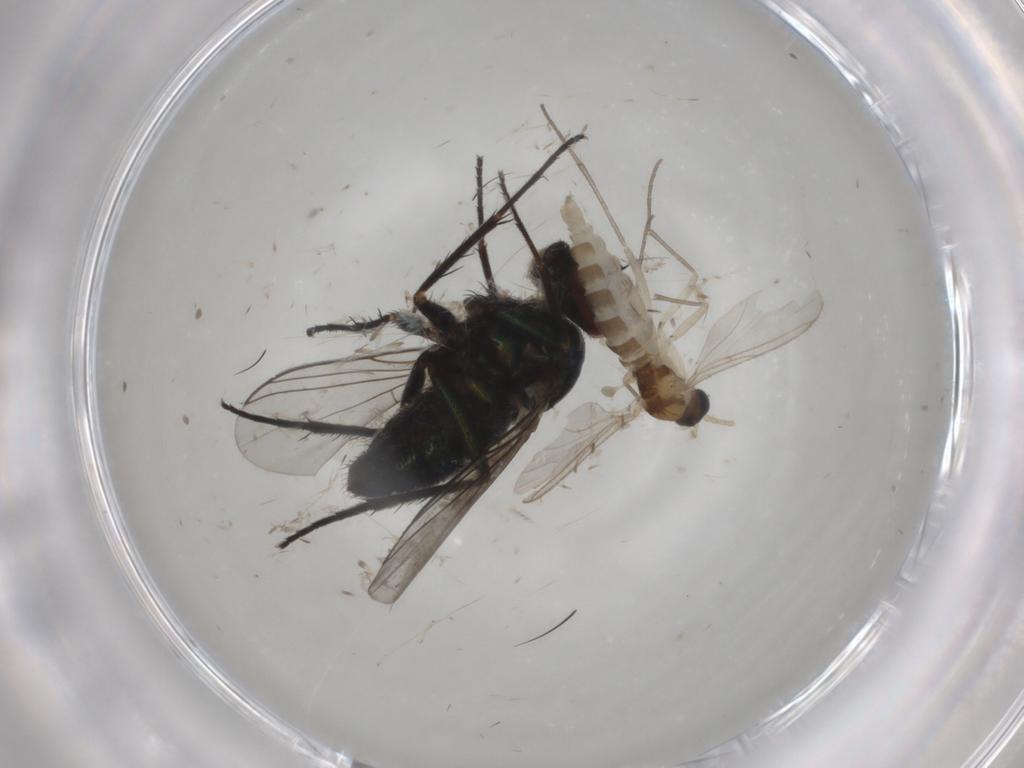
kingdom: Animalia
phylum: Arthropoda
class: Insecta
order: Diptera
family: Dolichopodidae
